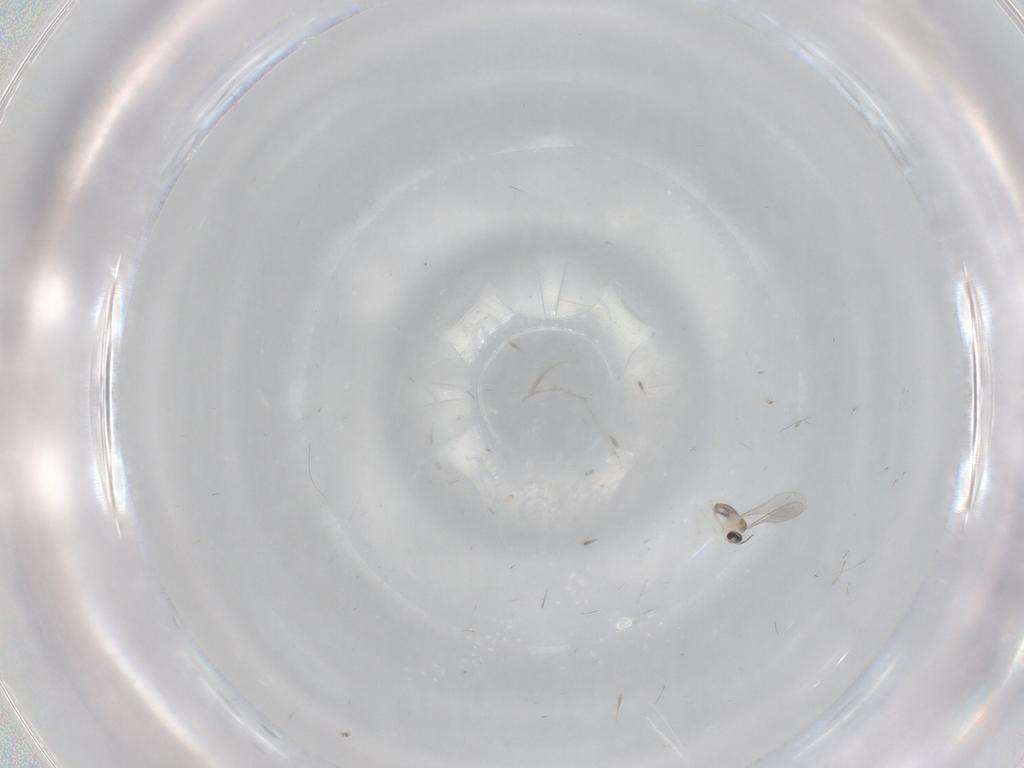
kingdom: Animalia
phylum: Arthropoda
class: Insecta
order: Diptera
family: Cecidomyiidae
